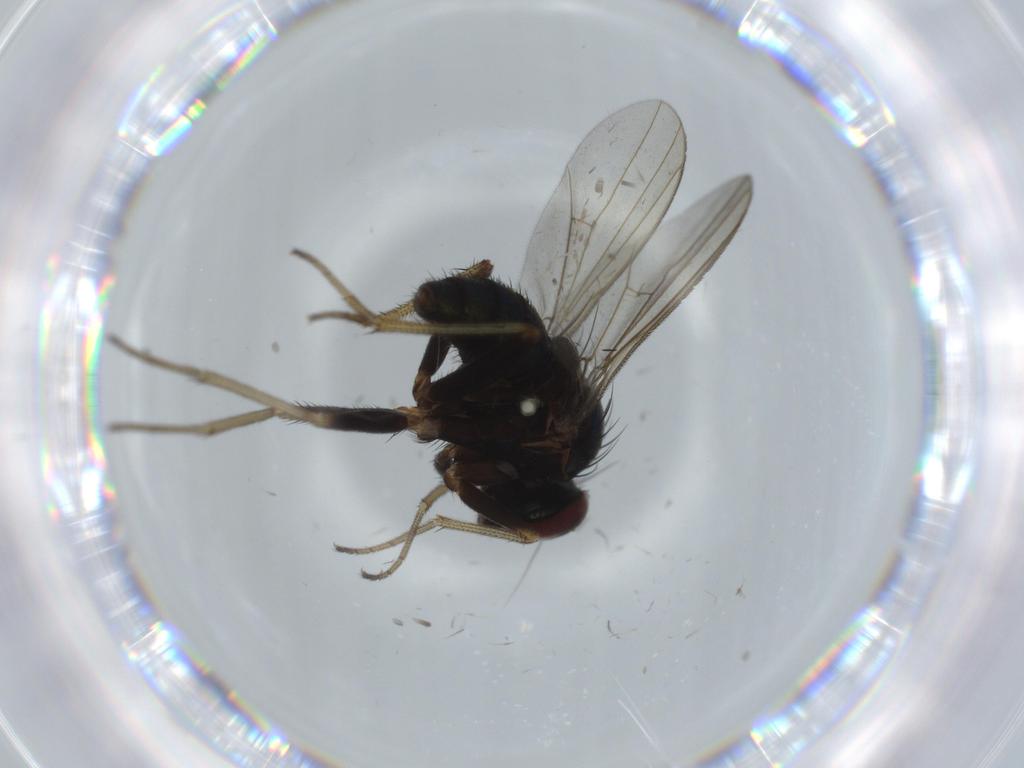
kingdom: Animalia
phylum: Arthropoda
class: Insecta
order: Diptera
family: Dolichopodidae
